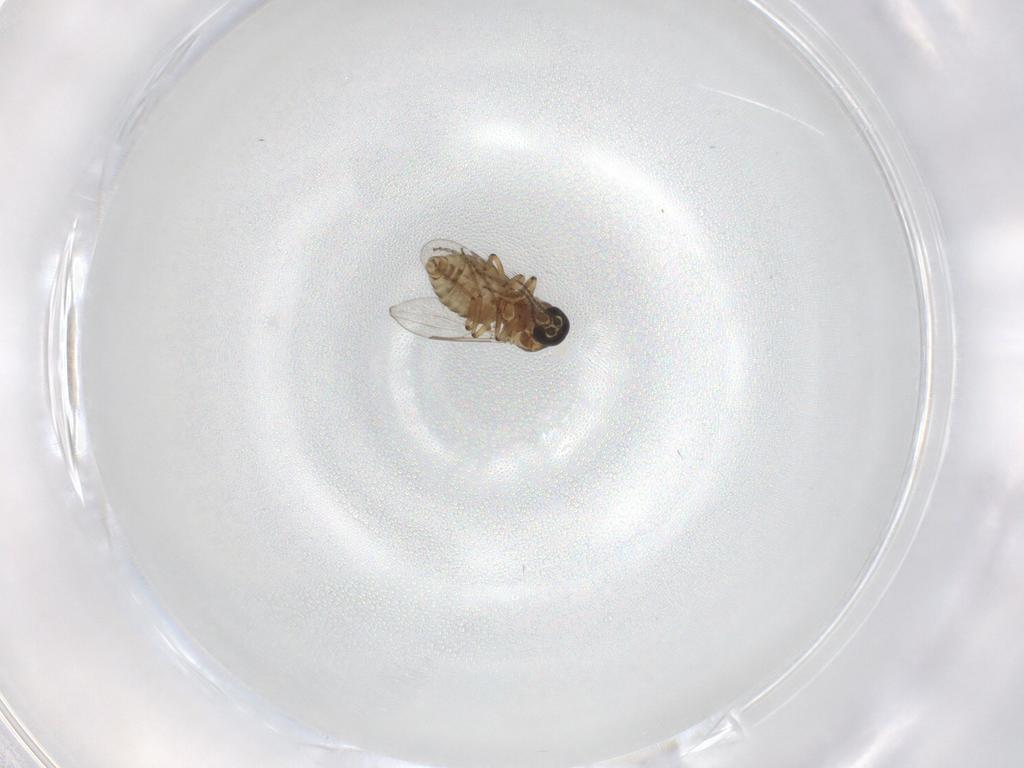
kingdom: Animalia
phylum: Arthropoda
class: Insecta
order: Diptera
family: Ceratopogonidae
